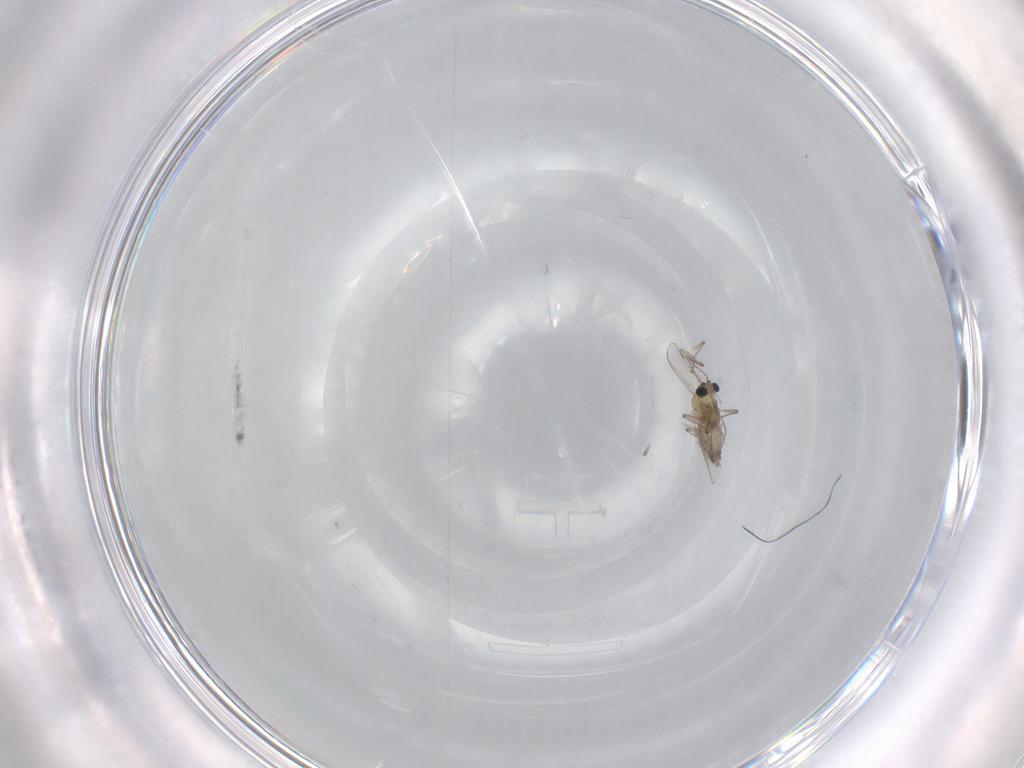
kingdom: Animalia
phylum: Arthropoda
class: Insecta
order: Diptera
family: Chironomidae
